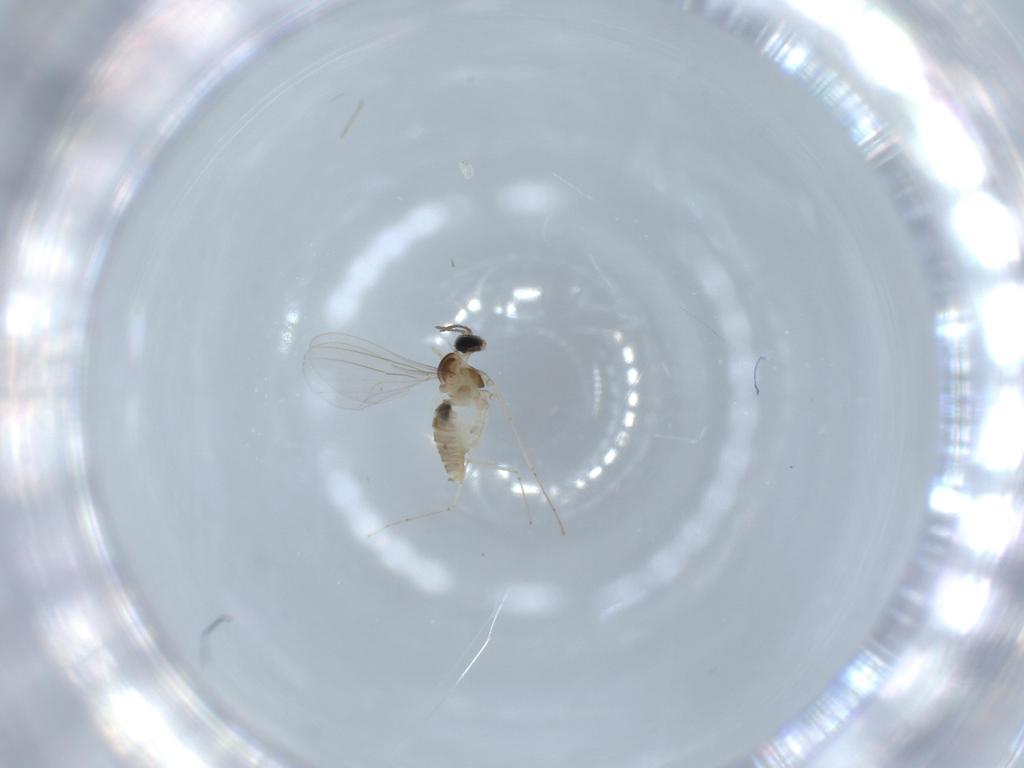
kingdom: Animalia
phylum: Arthropoda
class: Insecta
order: Diptera
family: Cecidomyiidae
